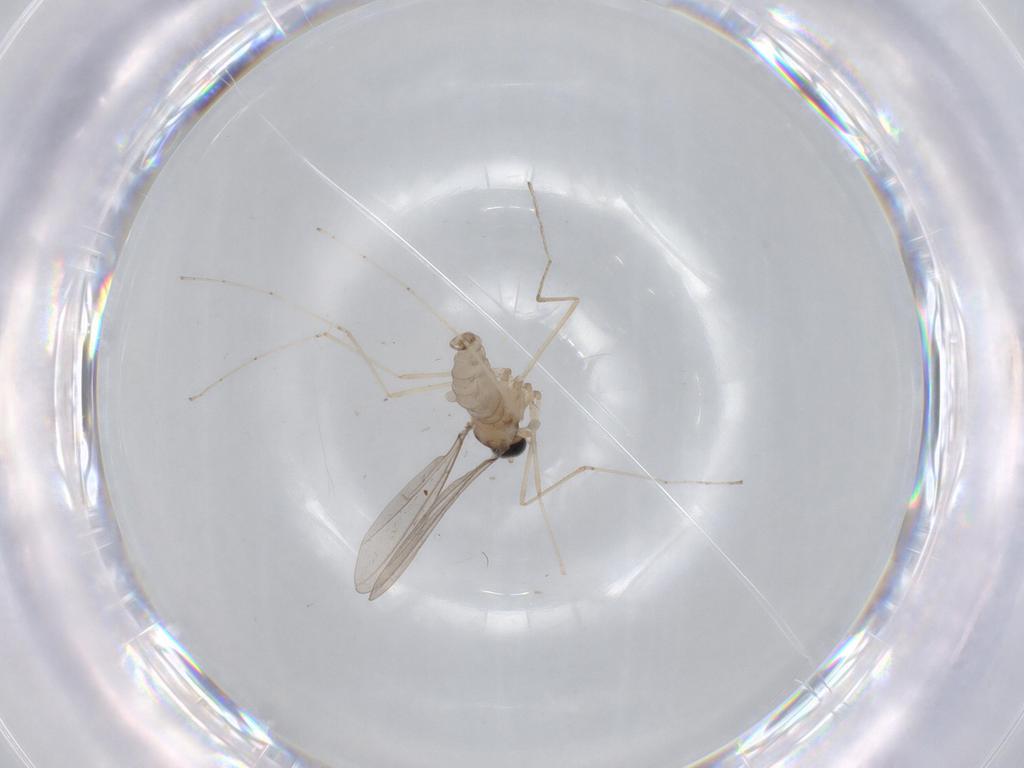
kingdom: Animalia
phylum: Arthropoda
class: Insecta
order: Diptera
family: Cecidomyiidae
